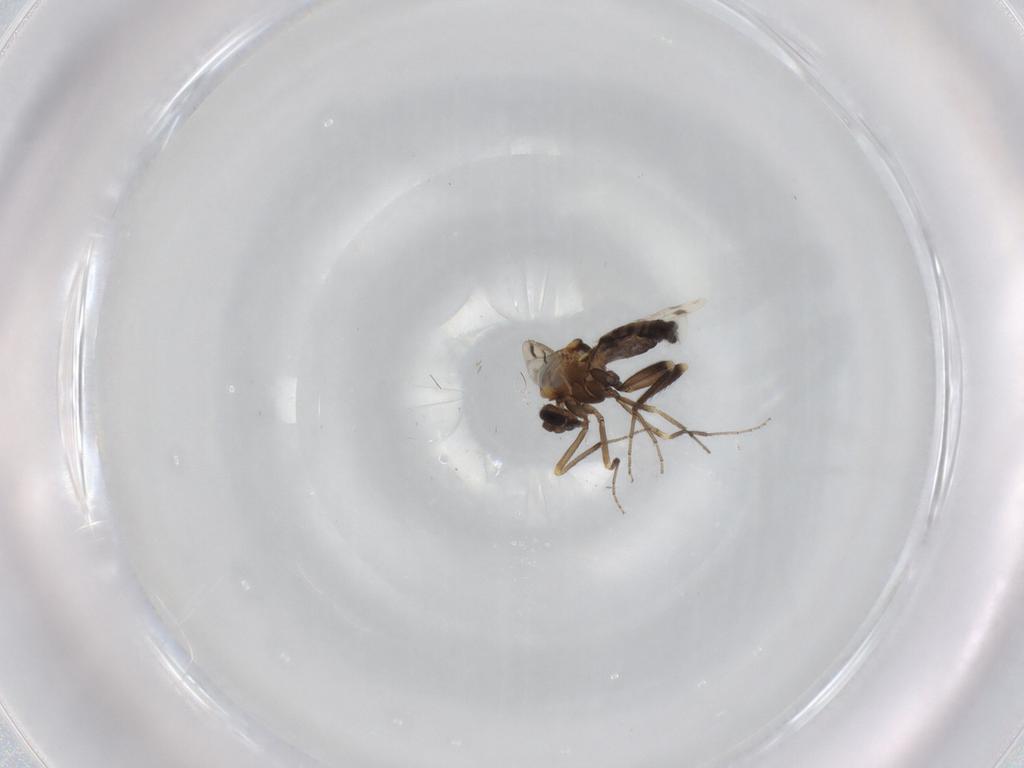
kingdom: Animalia
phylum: Arthropoda
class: Insecta
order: Diptera
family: Ceratopogonidae
